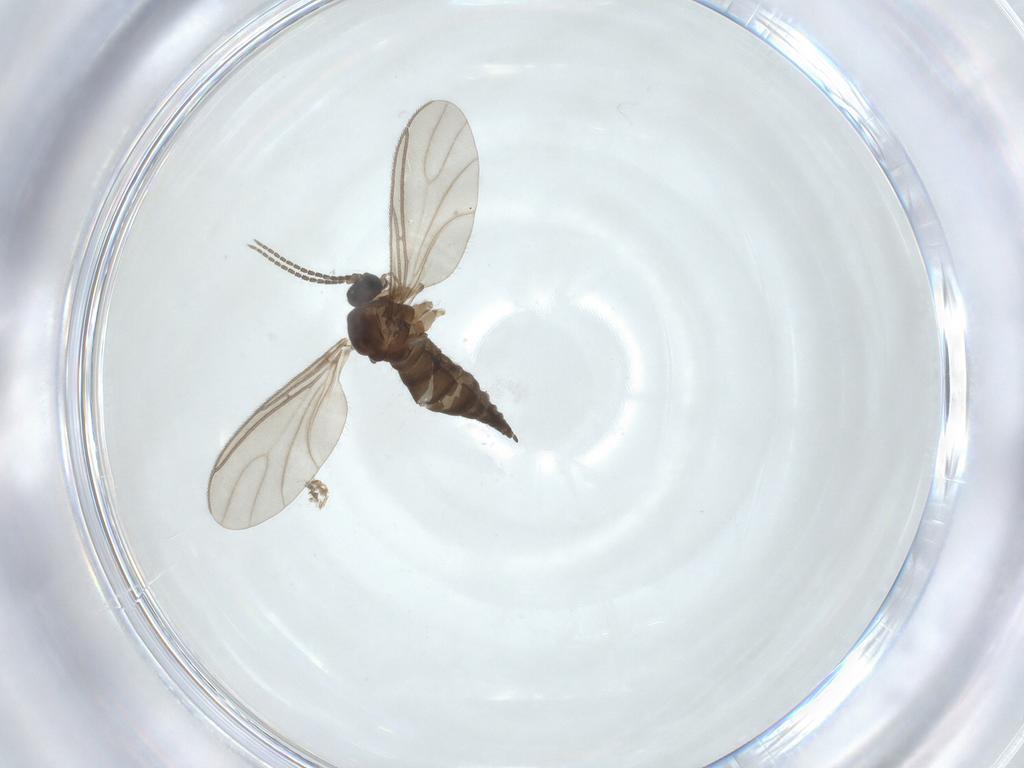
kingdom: Animalia
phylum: Arthropoda
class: Insecta
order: Diptera
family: Sciaridae
